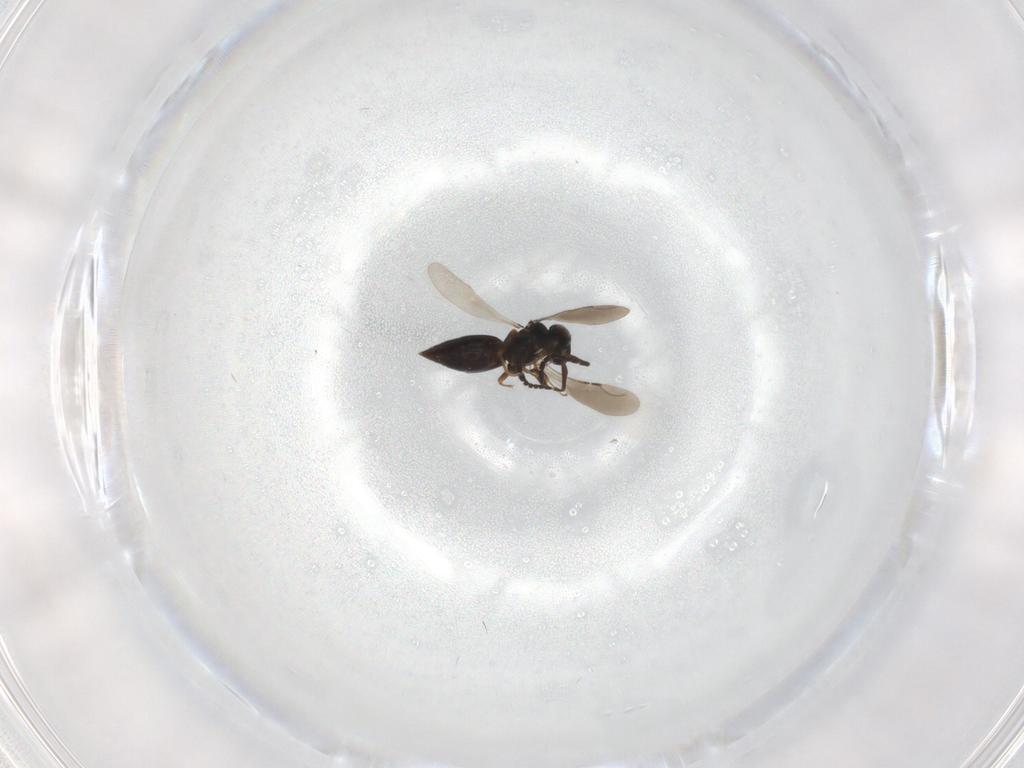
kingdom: Animalia
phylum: Arthropoda
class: Insecta
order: Hymenoptera
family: Ceraphronidae
